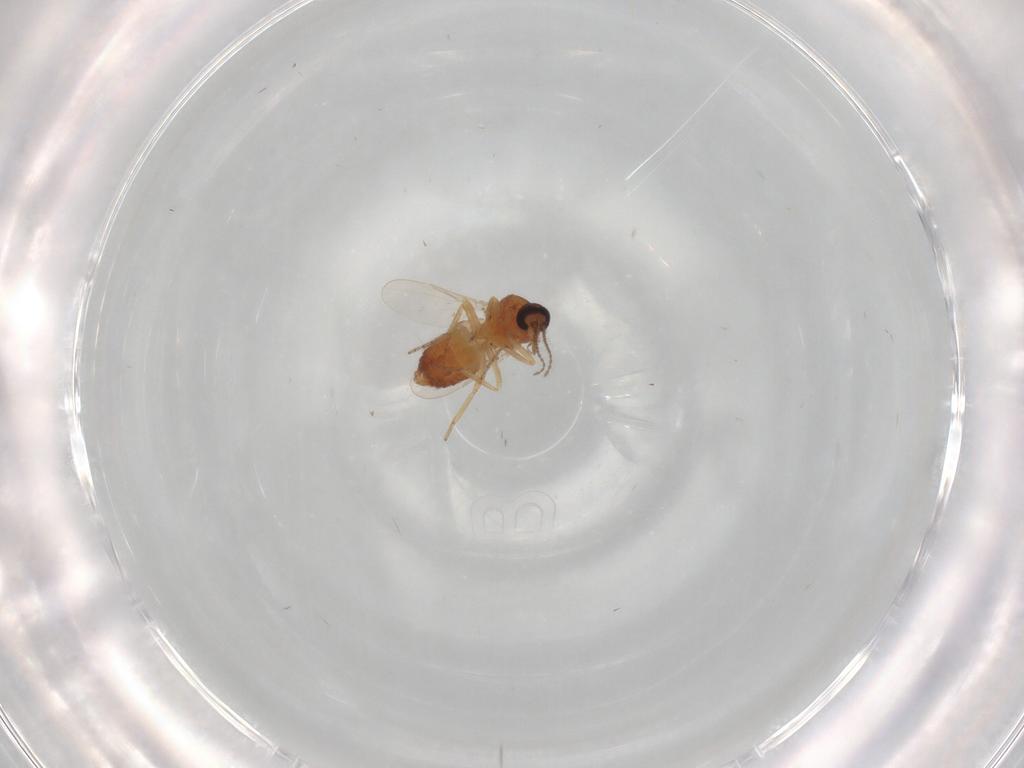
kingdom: Animalia
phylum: Arthropoda
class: Insecta
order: Diptera
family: Ceratopogonidae
